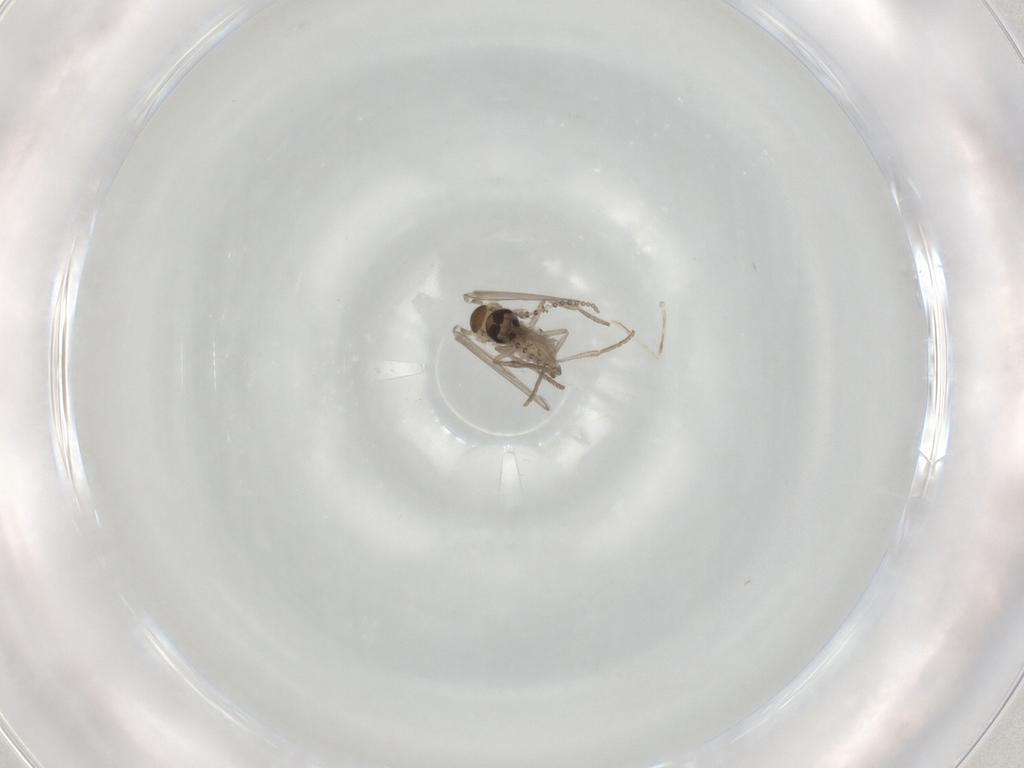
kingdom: Animalia
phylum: Arthropoda
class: Insecta
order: Diptera
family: Psychodidae
